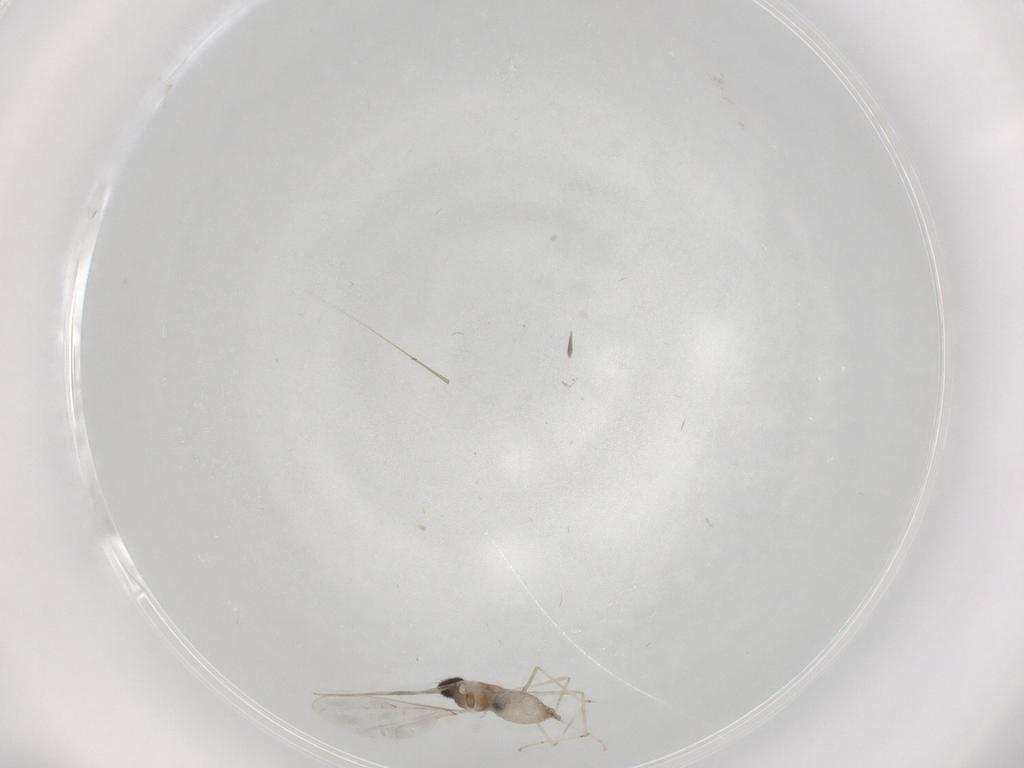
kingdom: Animalia
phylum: Arthropoda
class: Insecta
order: Diptera
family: Cecidomyiidae
